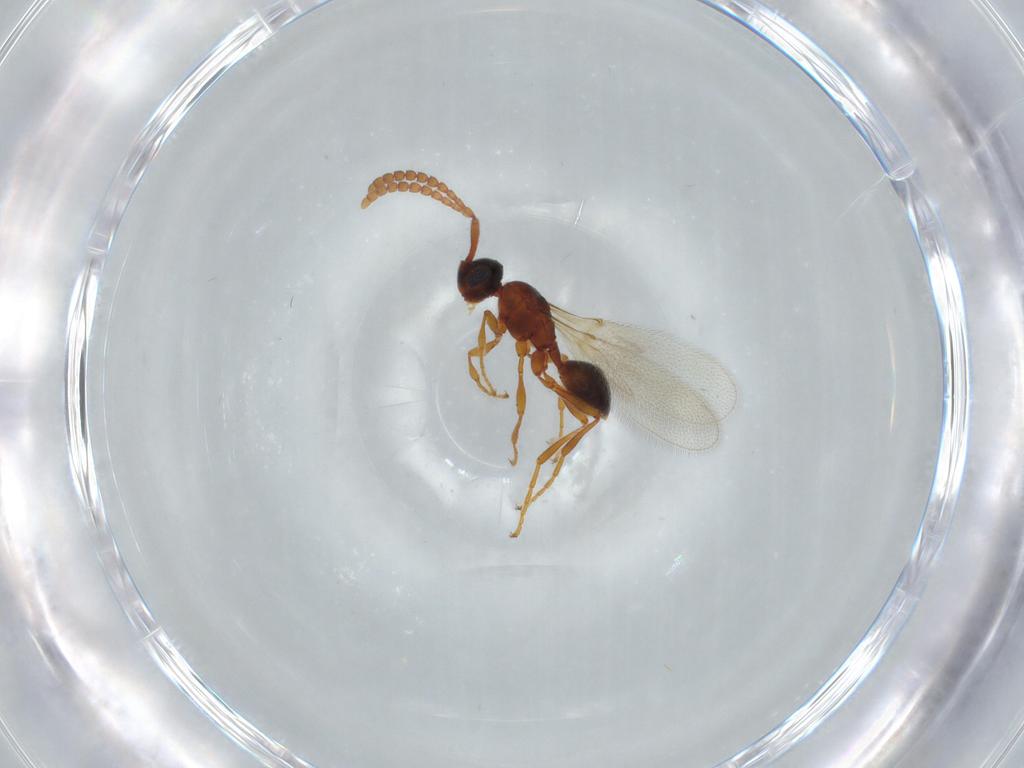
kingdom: Animalia
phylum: Arthropoda
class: Insecta
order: Hymenoptera
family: Diapriidae
